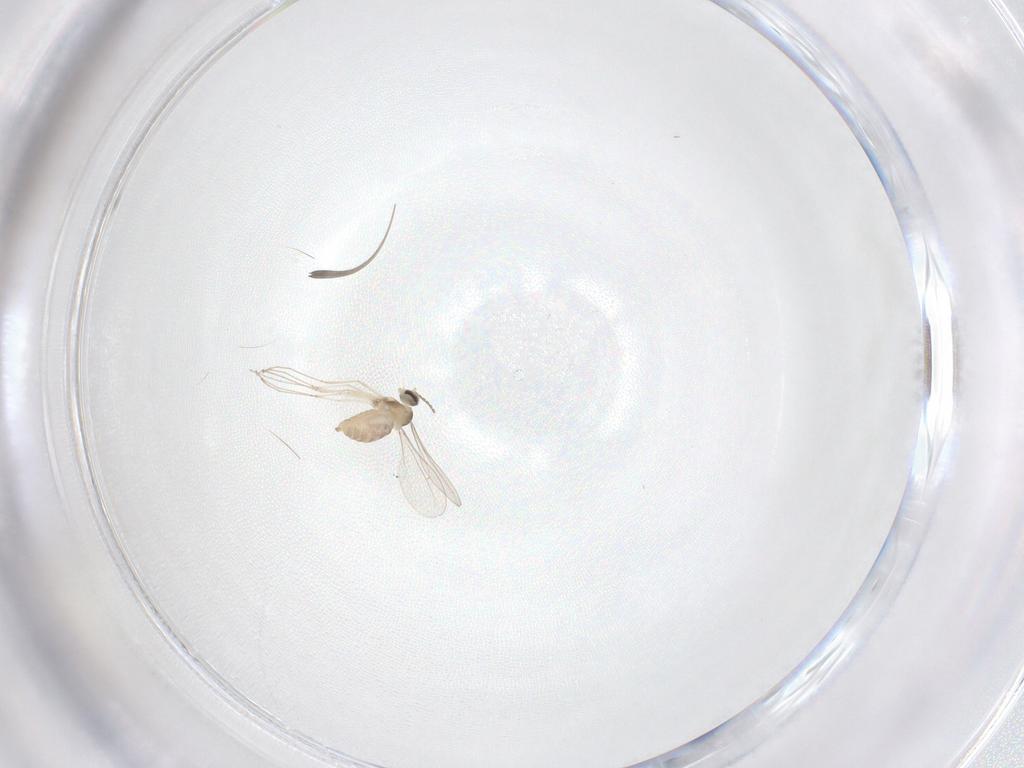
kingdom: Animalia
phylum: Arthropoda
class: Insecta
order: Diptera
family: Cecidomyiidae
